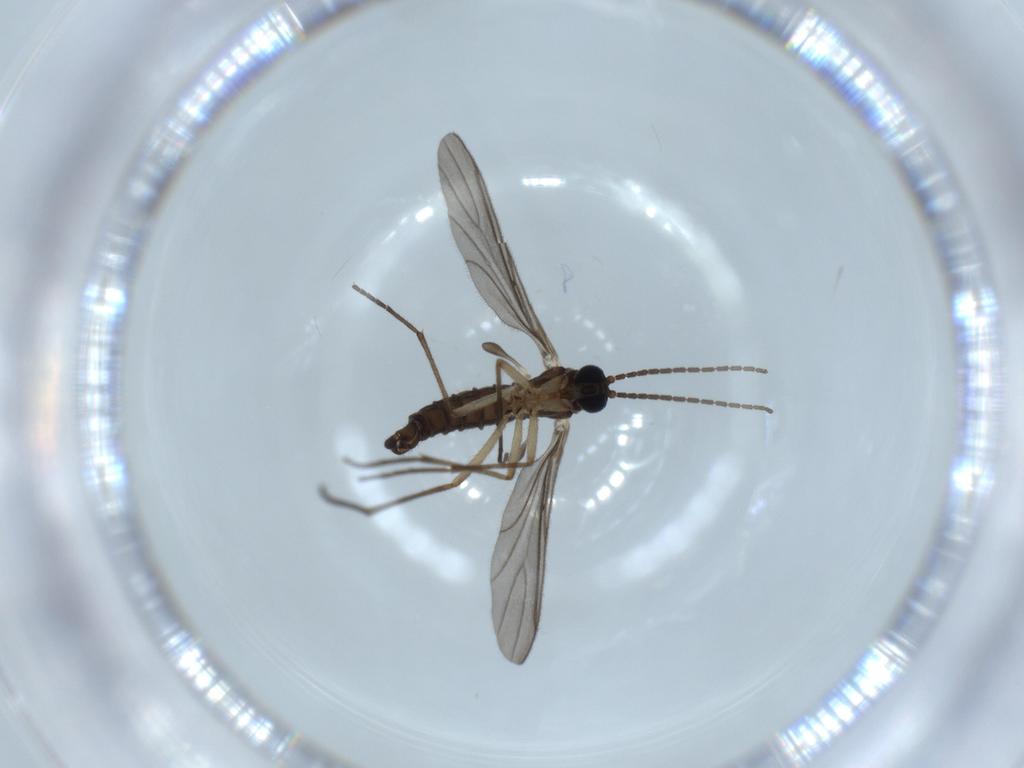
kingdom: Animalia
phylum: Arthropoda
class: Insecta
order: Diptera
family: Sciaridae
